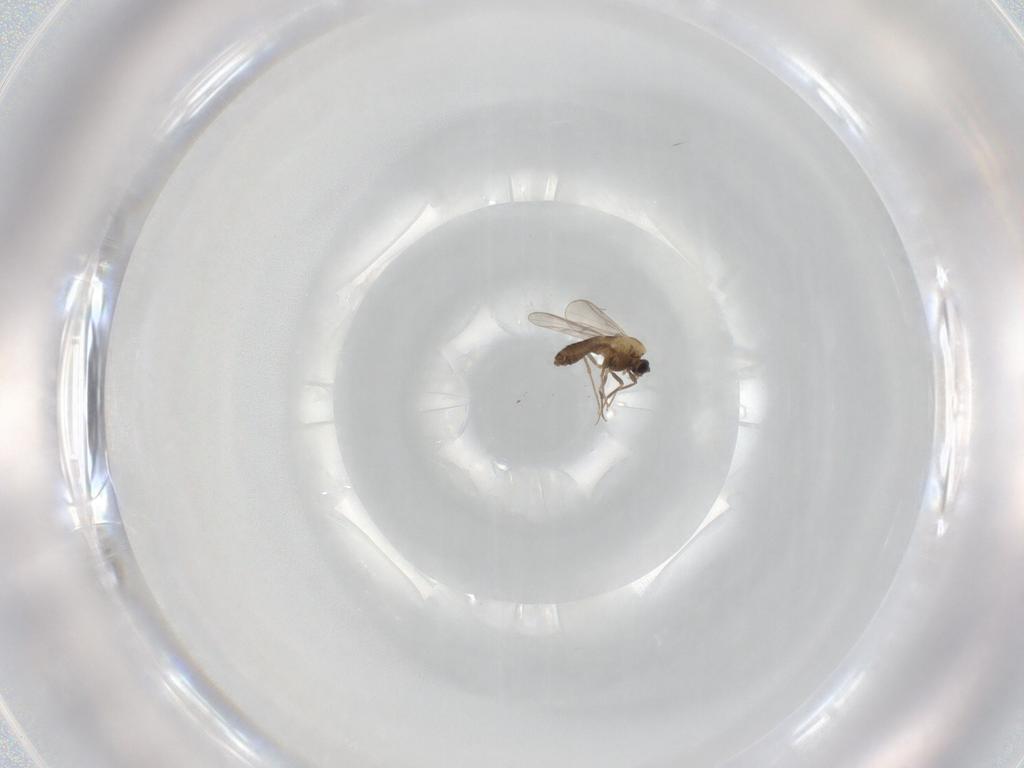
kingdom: Animalia
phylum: Arthropoda
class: Insecta
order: Diptera
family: Chironomidae
